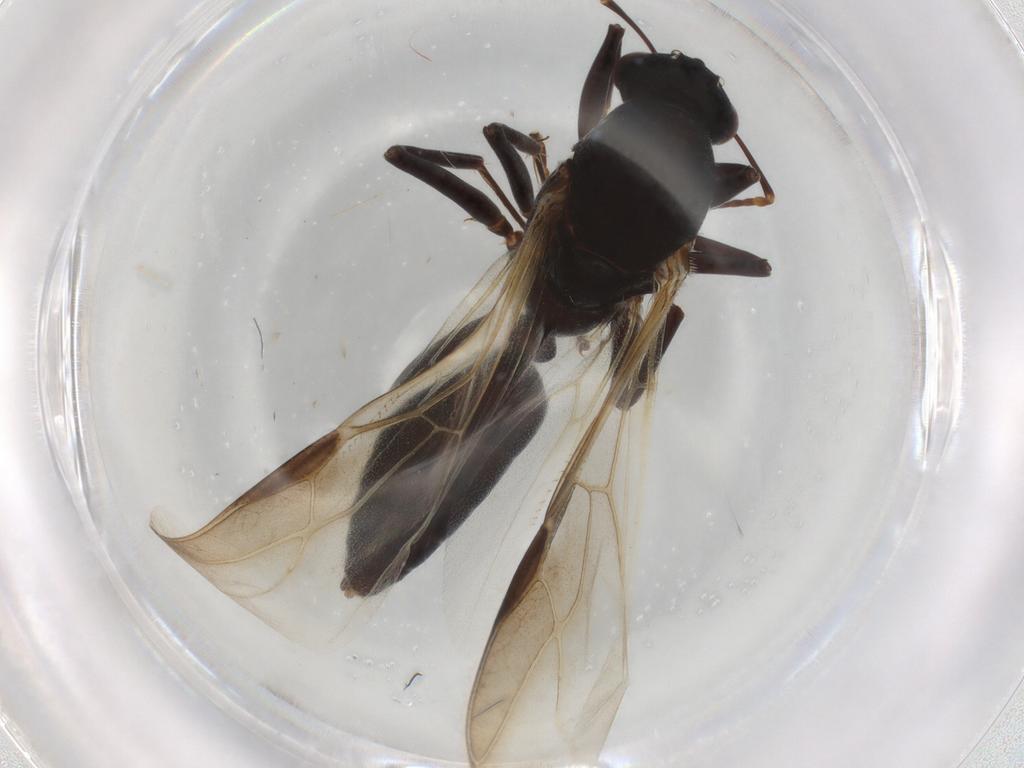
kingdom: Animalia
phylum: Arthropoda
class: Insecta
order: Hymenoptera
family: Formicidae
